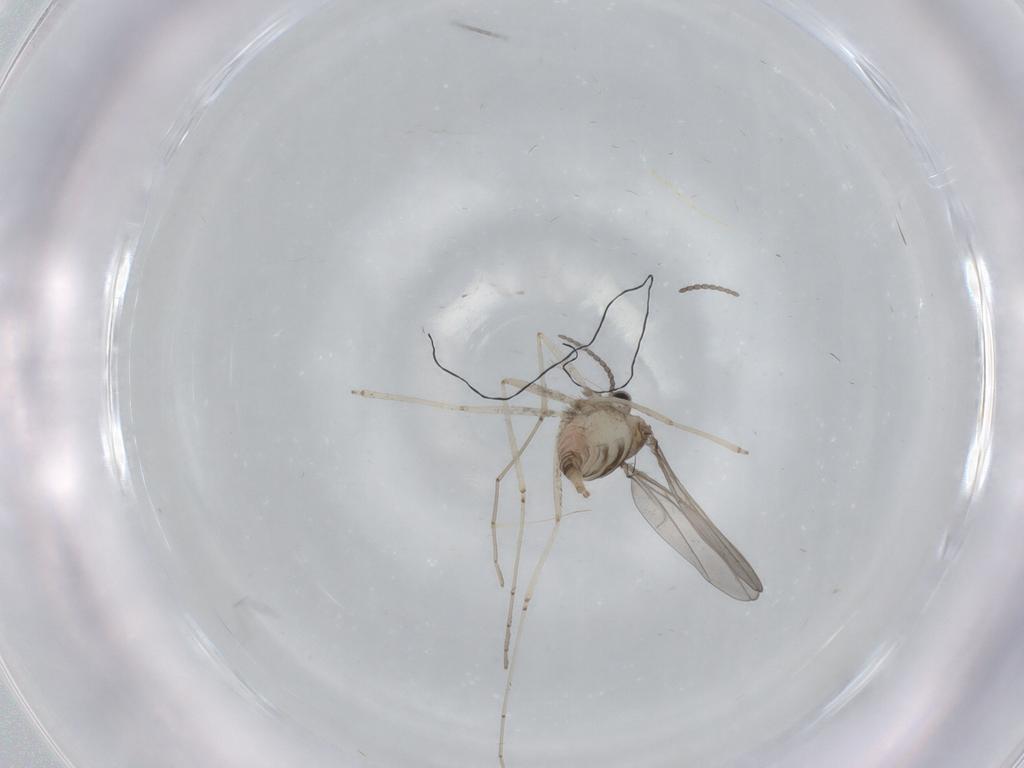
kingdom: Animalia
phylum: Arthropoda
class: Insecta
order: Diptera
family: Cecidomyiidae
